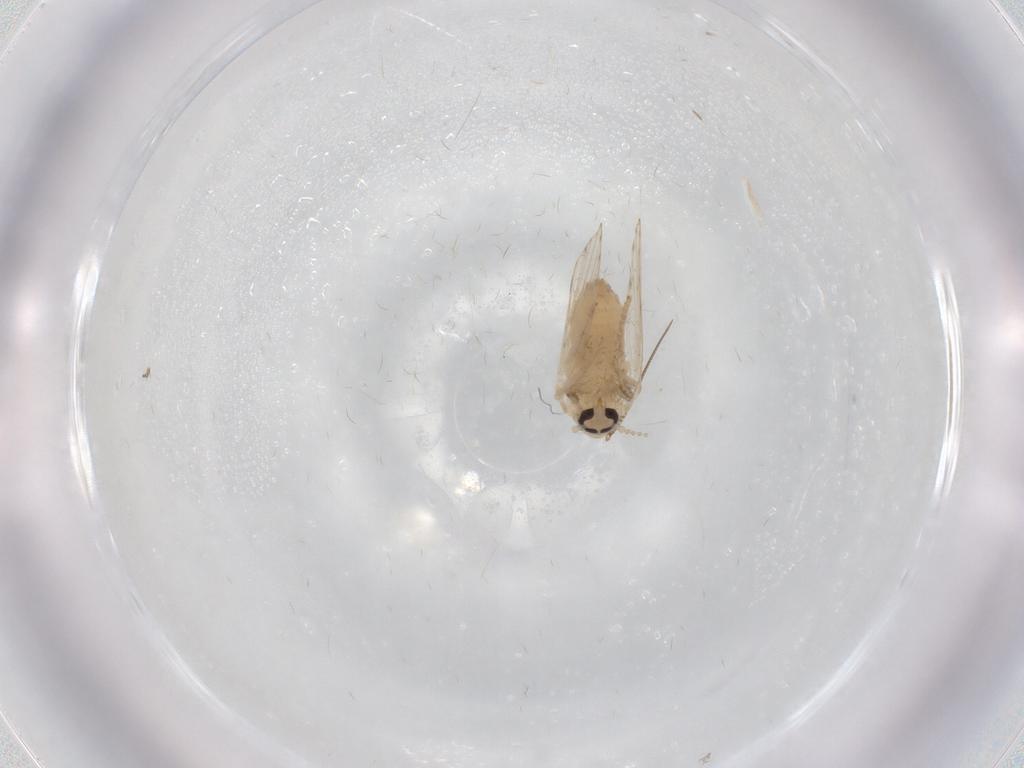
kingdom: Animalia
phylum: Arthropoda
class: Insecta
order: Diptera
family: Psychodidae
